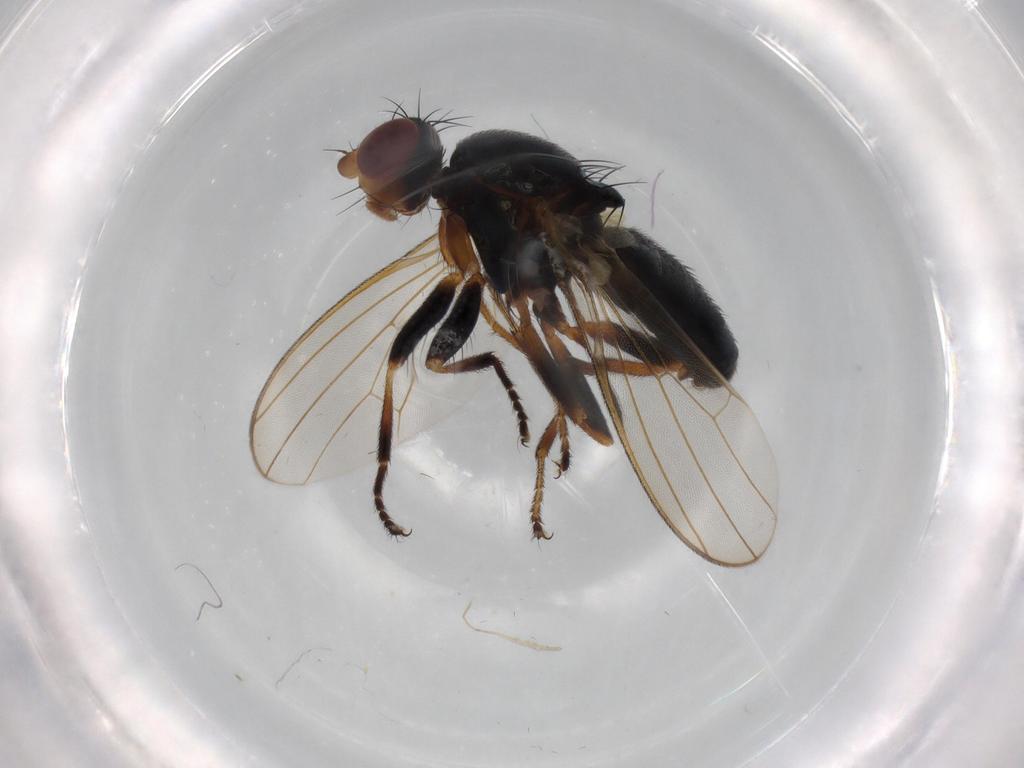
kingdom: Animalia
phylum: Arthropoda
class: Insecta
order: Diptera
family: Piophilidae
